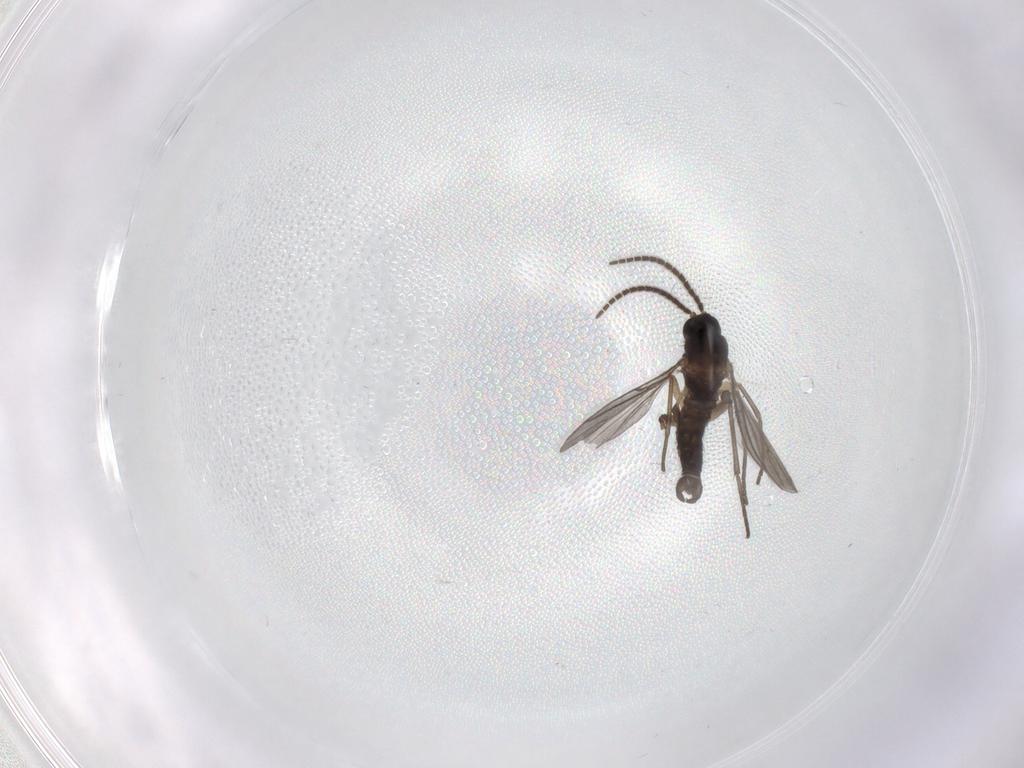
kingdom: Animalia
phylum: Arthropoda
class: Insecta
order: Diptera
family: Sciaridae
